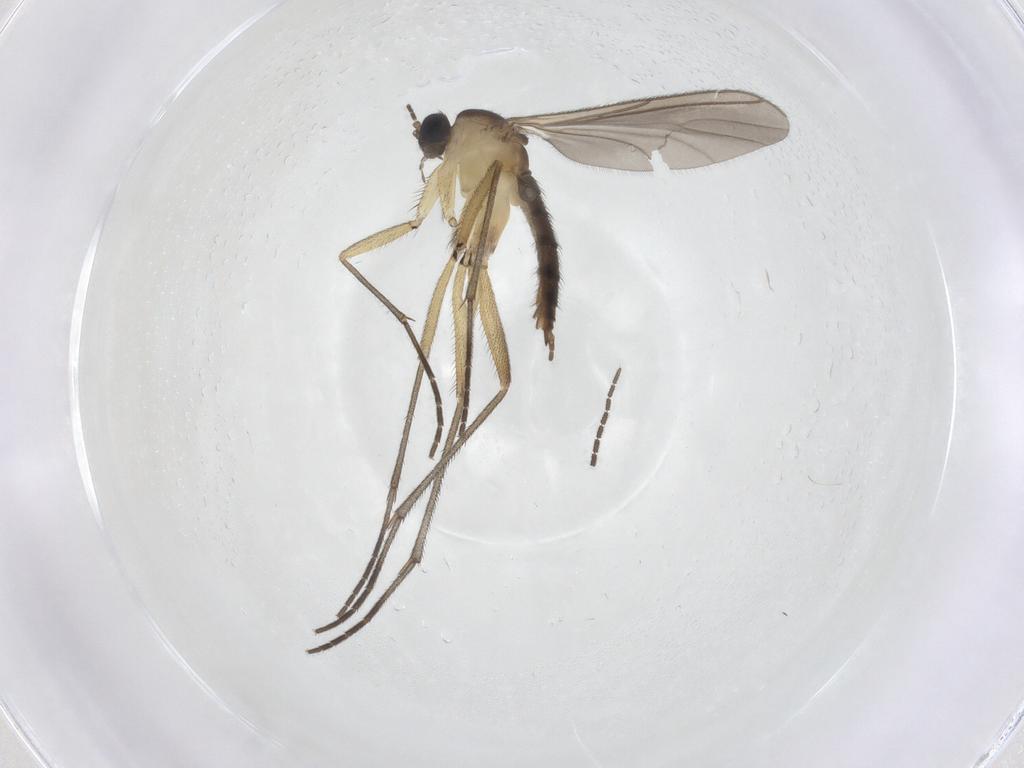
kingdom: Animalia
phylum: Arthropoda
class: Insecta
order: Diptera
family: Sciaridae
